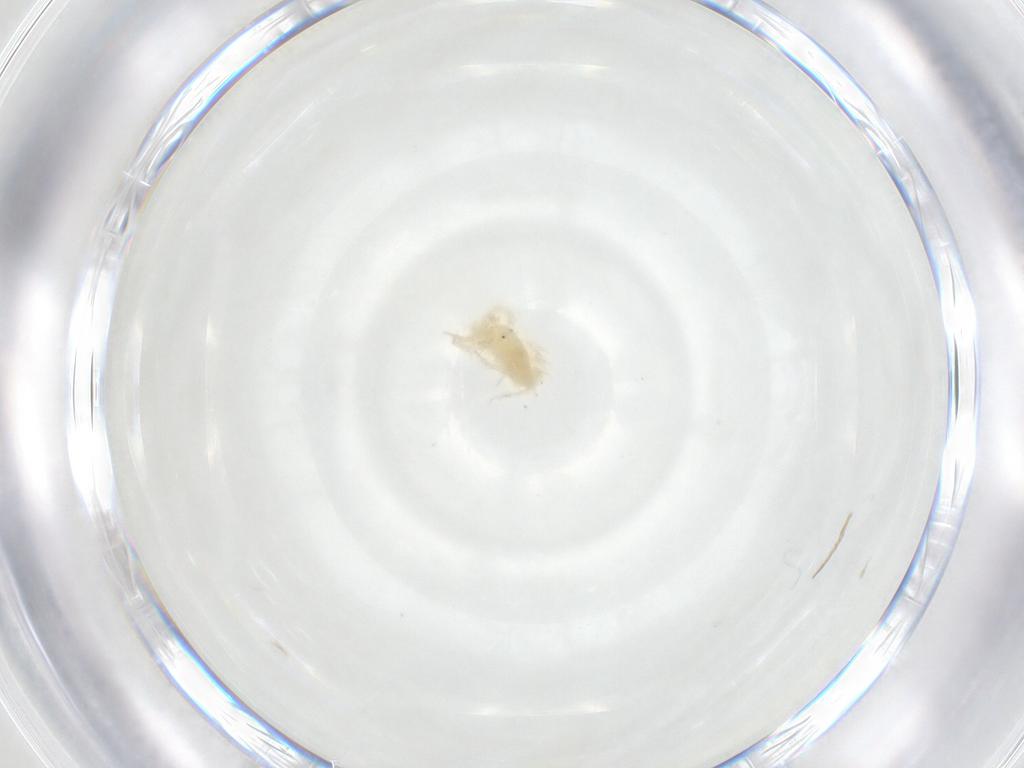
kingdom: Animalia
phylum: Arthropoda
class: Arachnida
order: Trombidiformes
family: Anystidae
